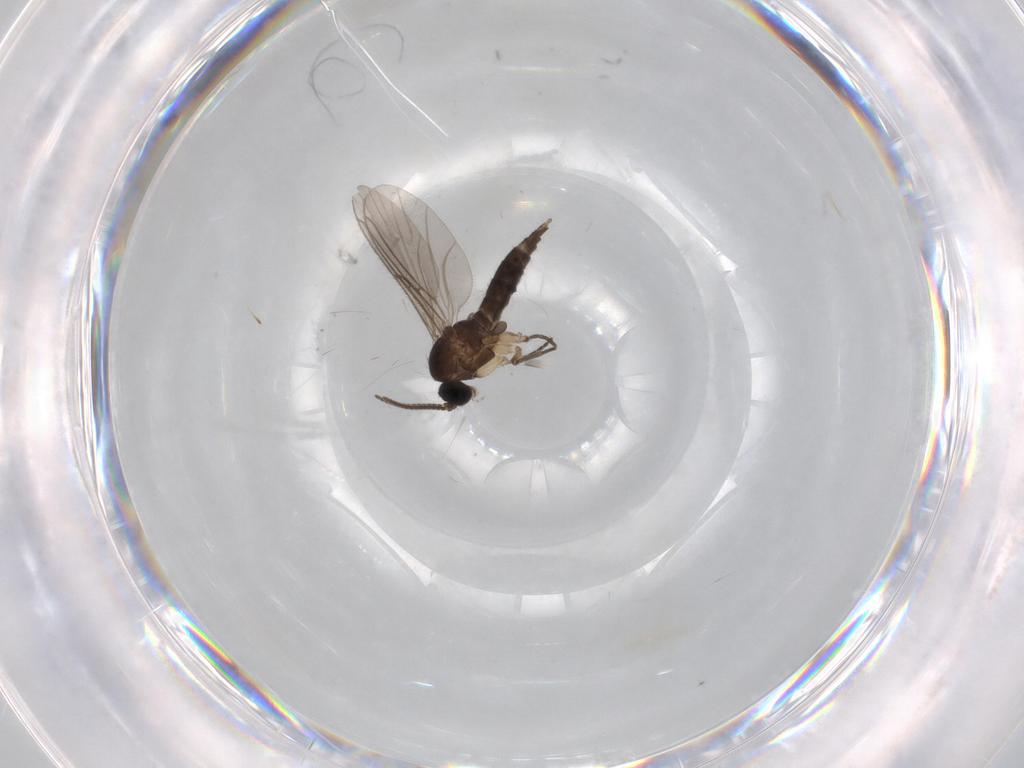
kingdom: Animalia
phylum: Arthropoda
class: Insecta
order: Diptera
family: Sciaridae
